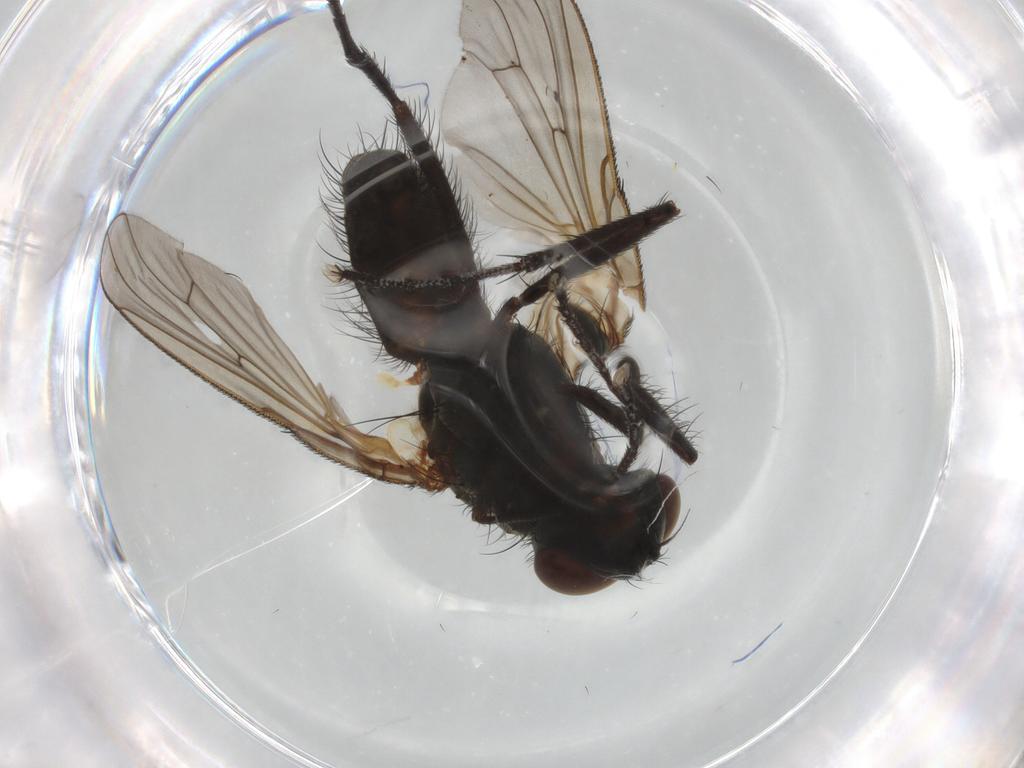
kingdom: Animalia
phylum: Arthropoda
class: Insecta
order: Diptera
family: Anthomyiidae
